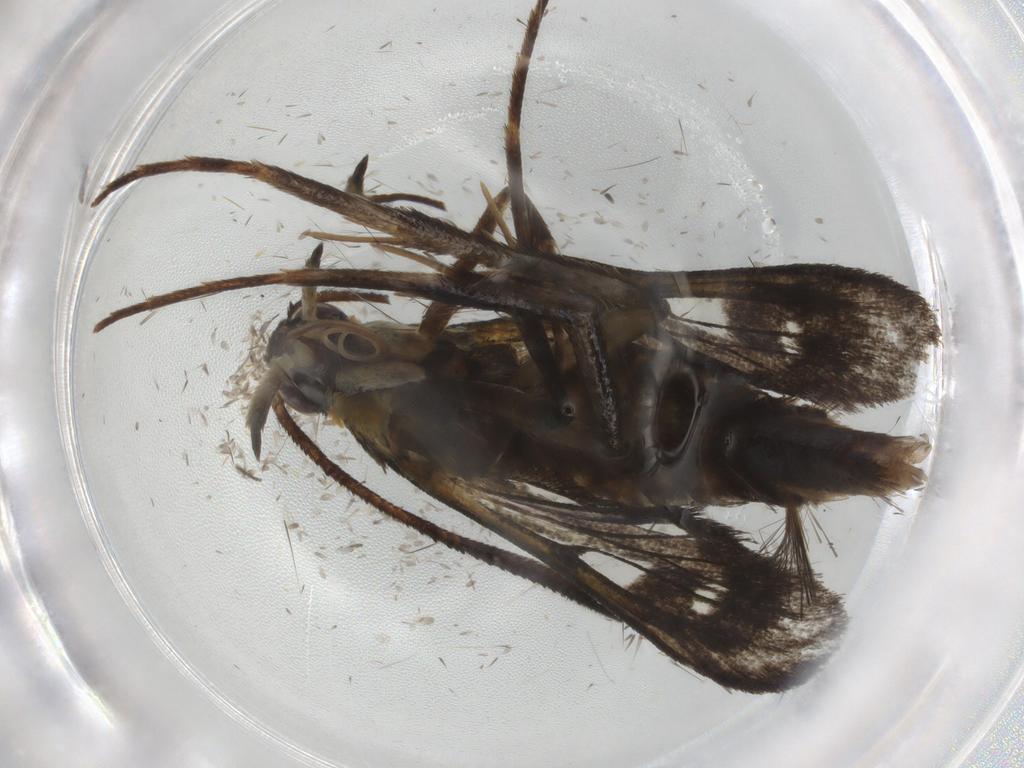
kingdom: Animalia
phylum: Arthropoda
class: Insecta
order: Lepidoptera
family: Sesiidae
